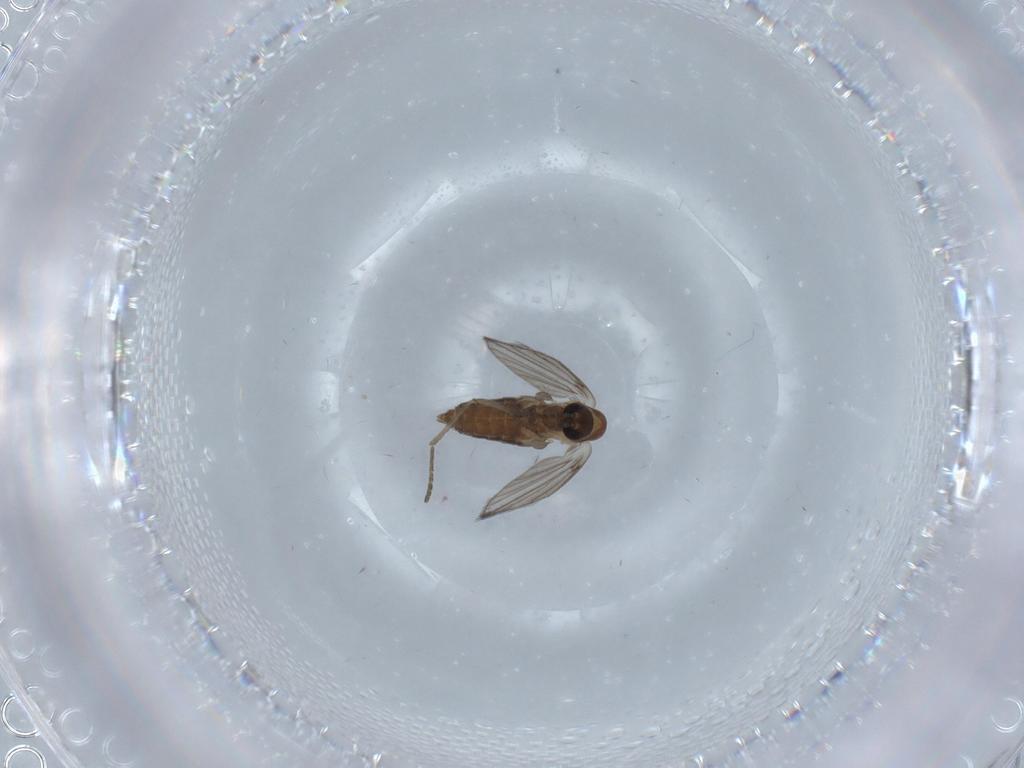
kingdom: Animalia
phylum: Arthropoda
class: Insecta
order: Diptera
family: Psychodidae
